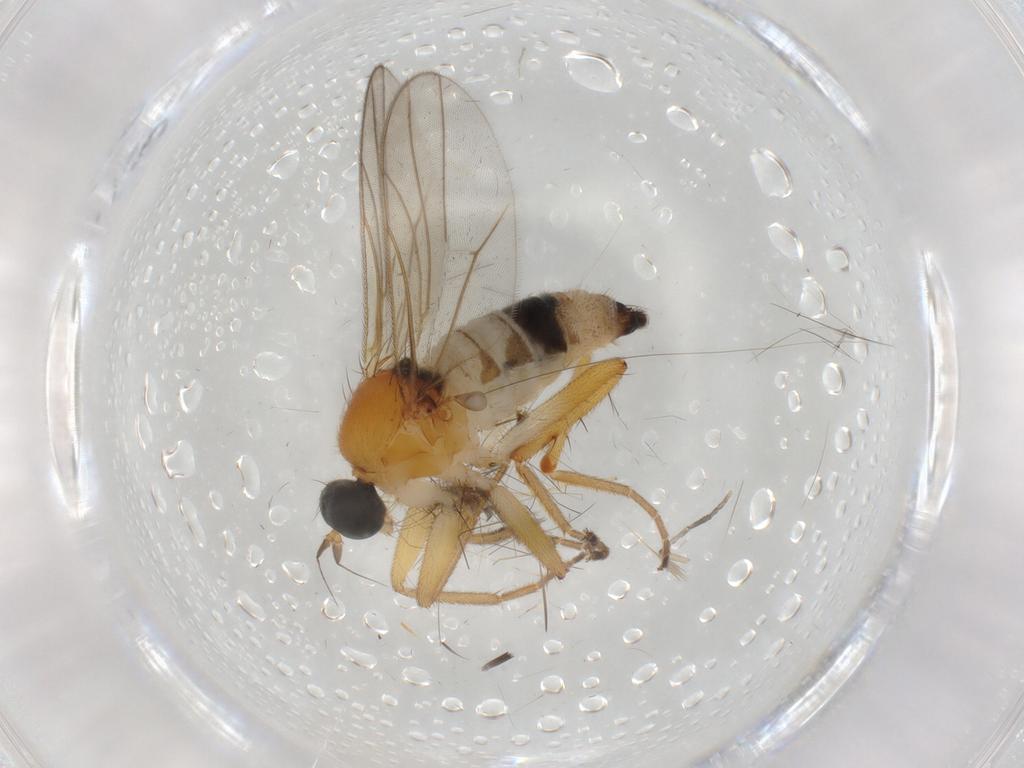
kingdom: Animalia
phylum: Arthropoda
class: Insecta
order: Diptera
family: Hybotidae
